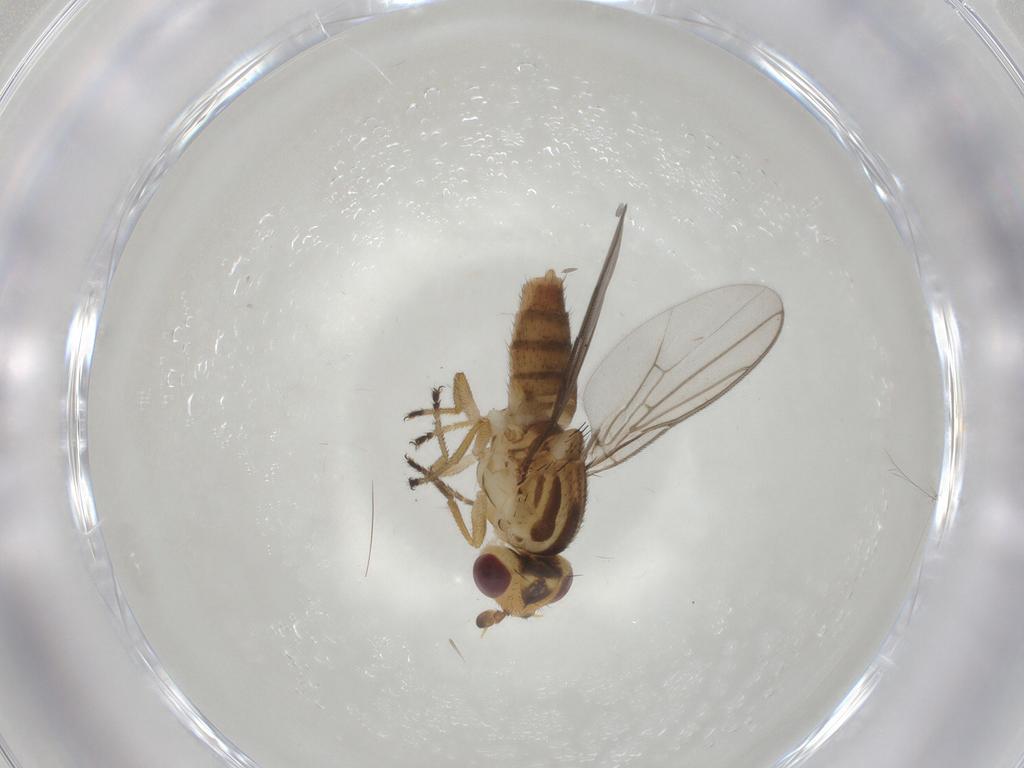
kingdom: Animalia
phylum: Arthropoda
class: Insecta
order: Diptera
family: Chloropidae
